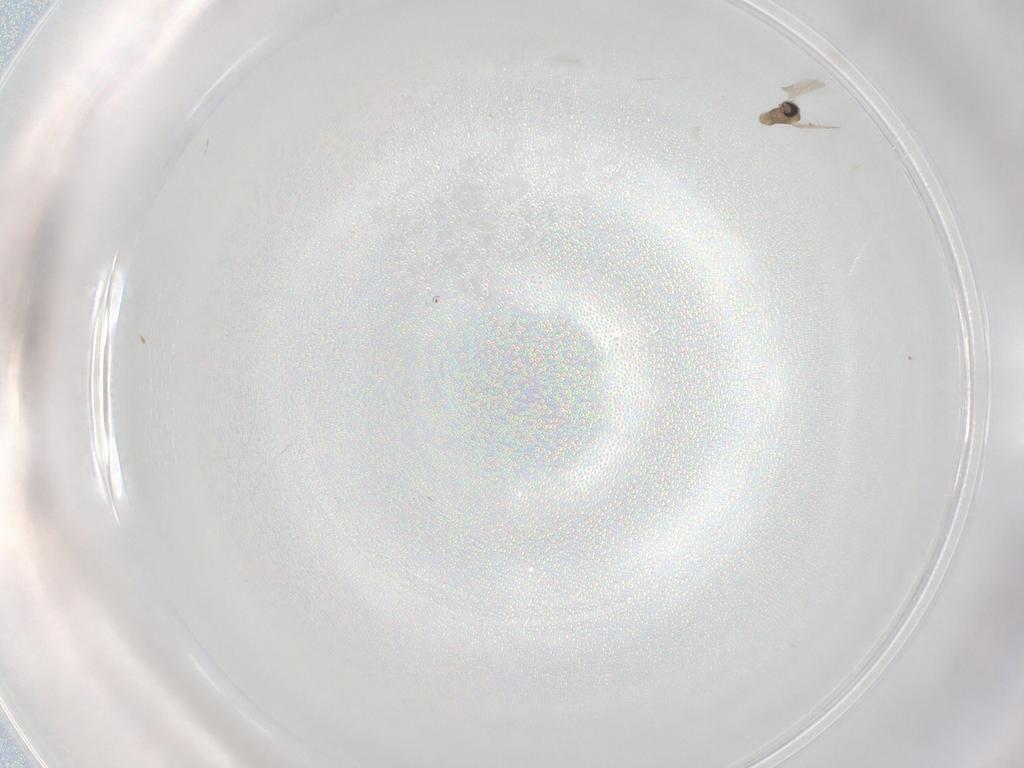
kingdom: Animalia
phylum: Arthropoda
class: Insecta
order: Diptera
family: Cecidomyiidae
